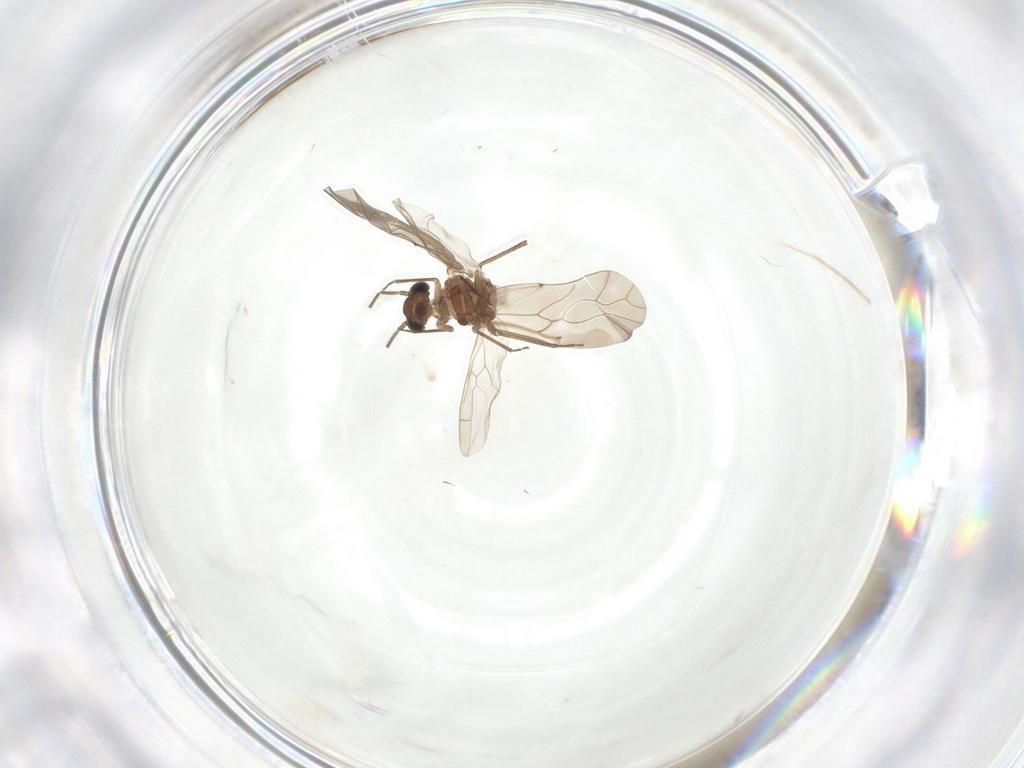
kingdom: Animalia
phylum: Arthropoda
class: Insecta
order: Psocodea
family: Peripsocidae
